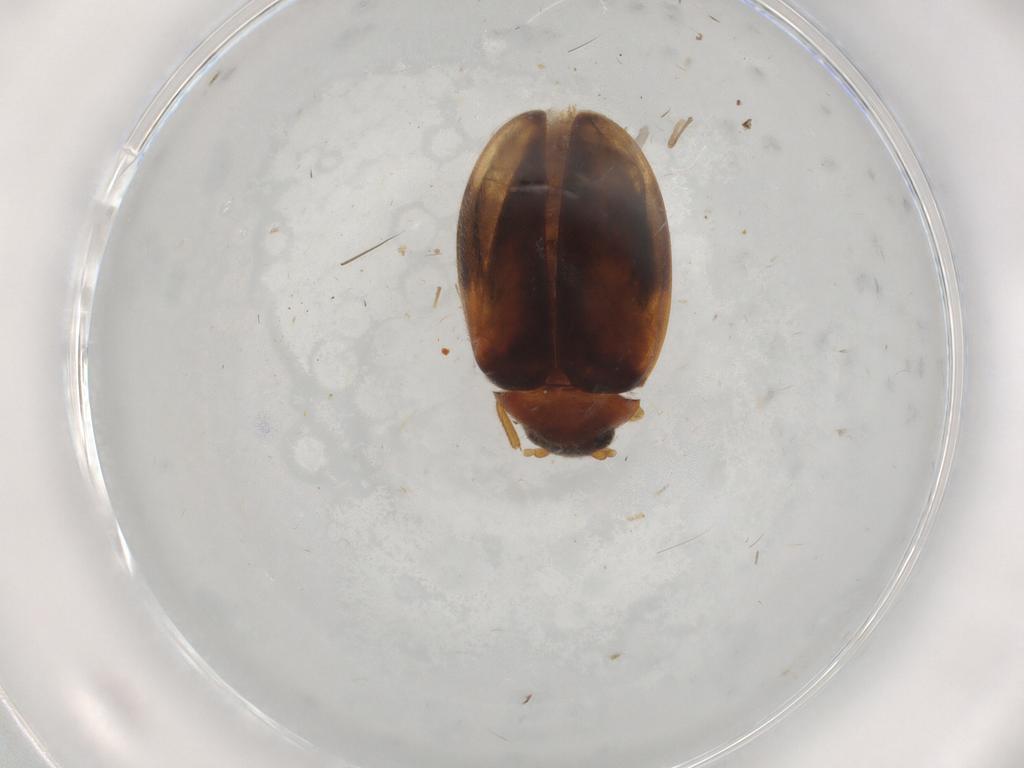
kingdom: Animalia
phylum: Arthropoda
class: Insecta
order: Coleoptera
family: Scirtidae
